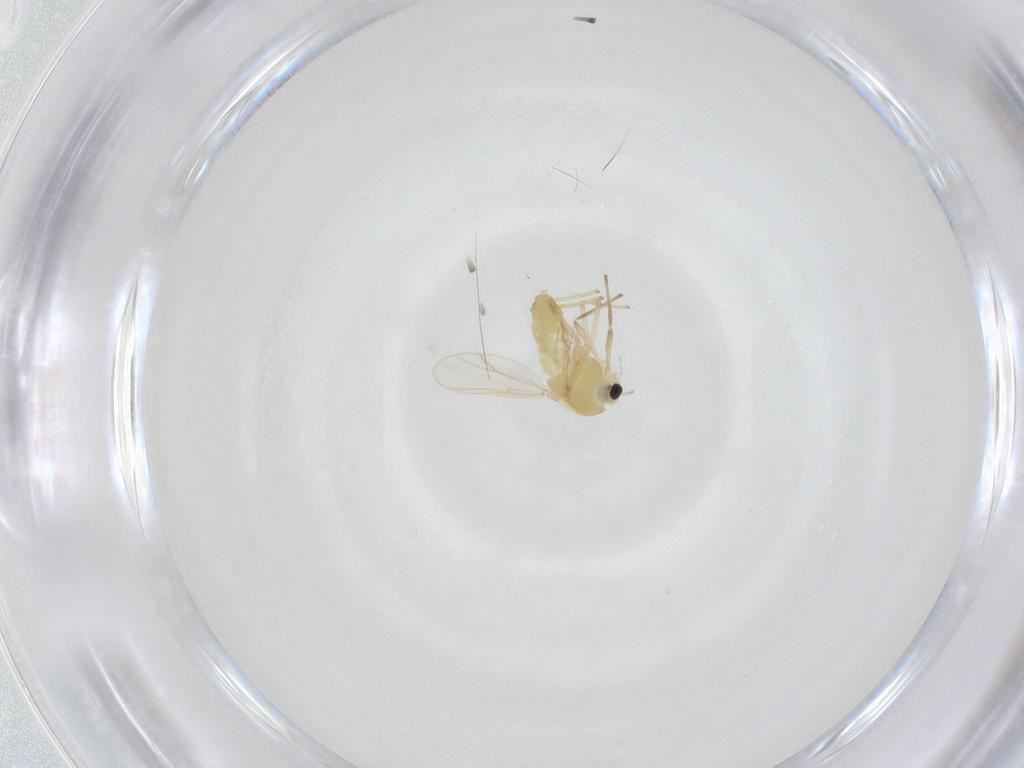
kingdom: Animalia
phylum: Arthropoda
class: Insecta
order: Diptera
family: Chironomidae
